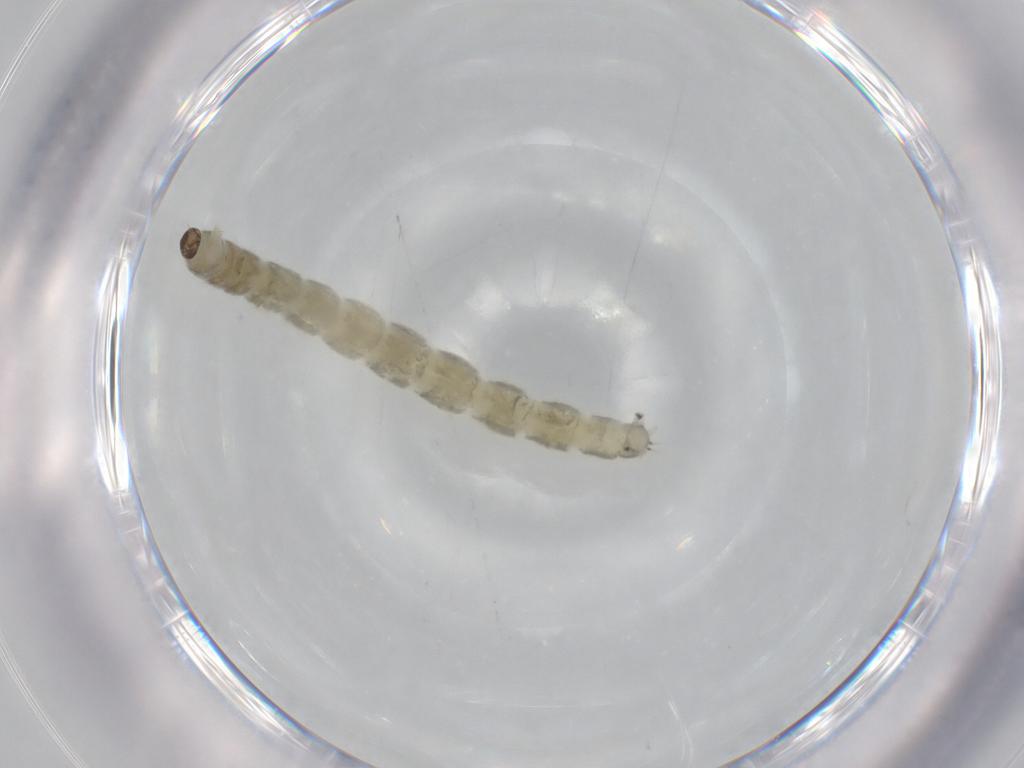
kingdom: Animalia
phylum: Arthropoda
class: Insecta
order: Diptera
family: Chironomidae
